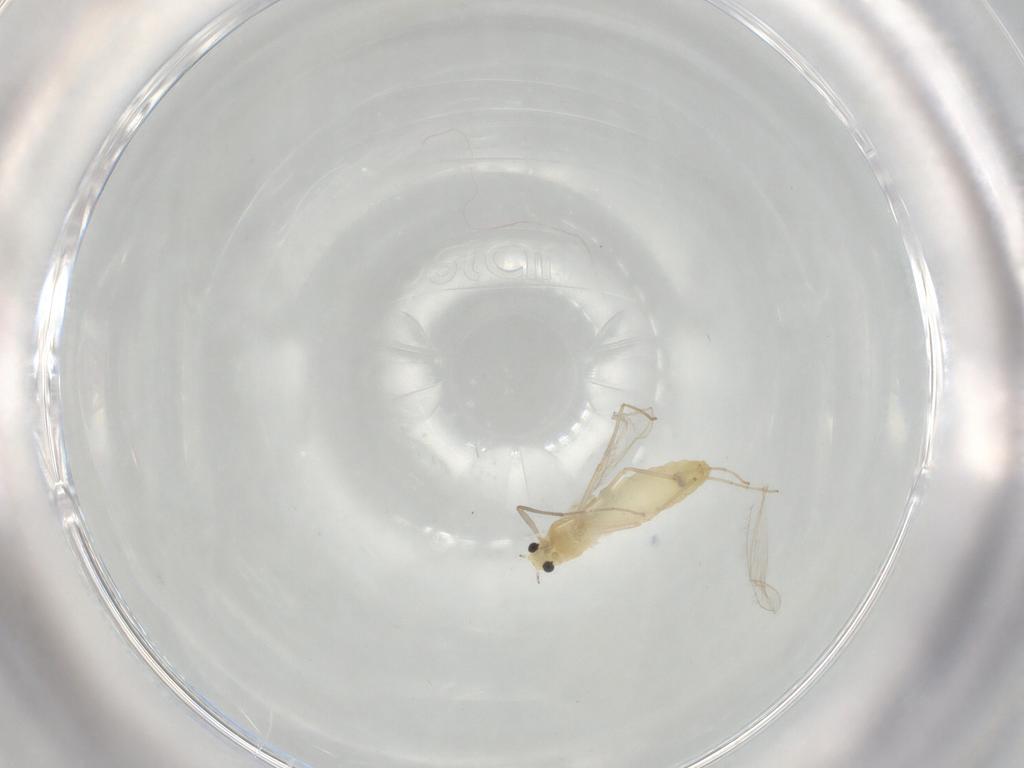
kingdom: Animalia
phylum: Arthropoda
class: Insecta
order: Diptera
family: Chironomidae
